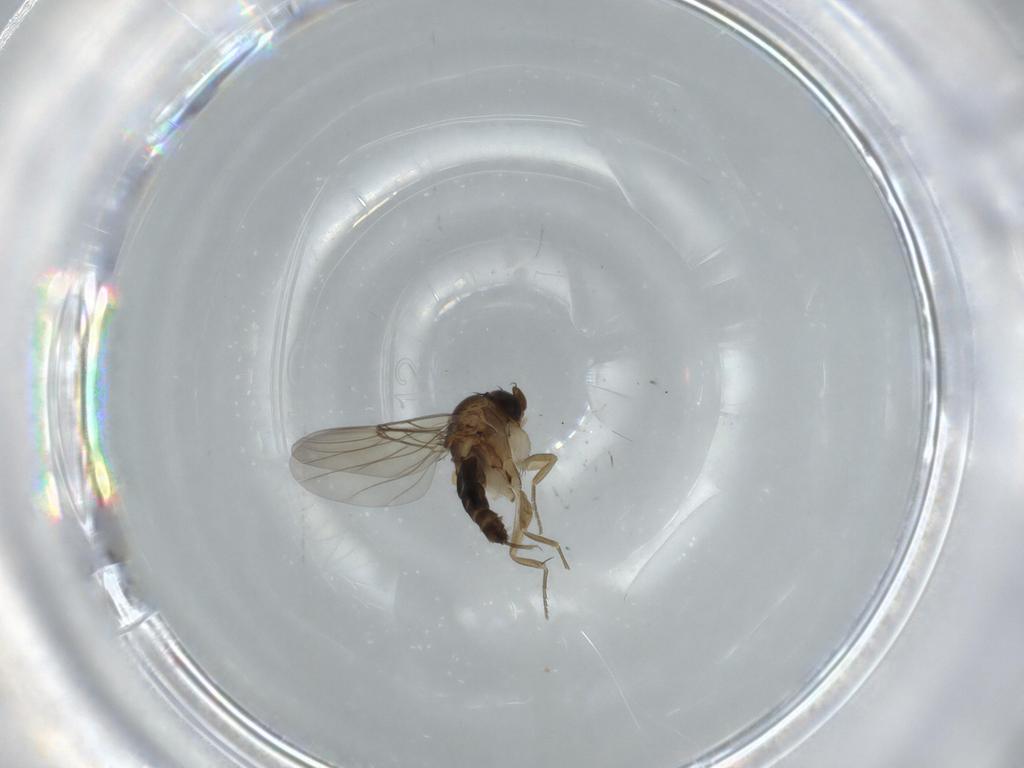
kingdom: Animalia
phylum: Arthropoda
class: Insecta
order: Diptera
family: Phoridae
